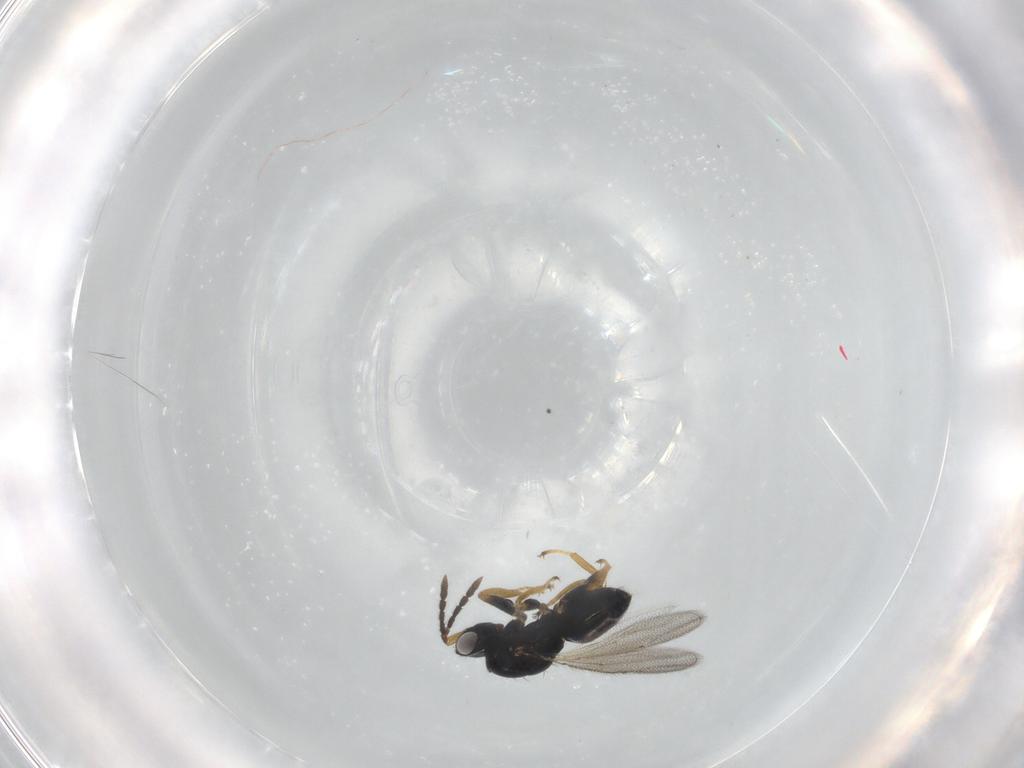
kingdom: Animalia
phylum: Arthropoda
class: Insecta
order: Hymenoptera
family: Eulophidae
